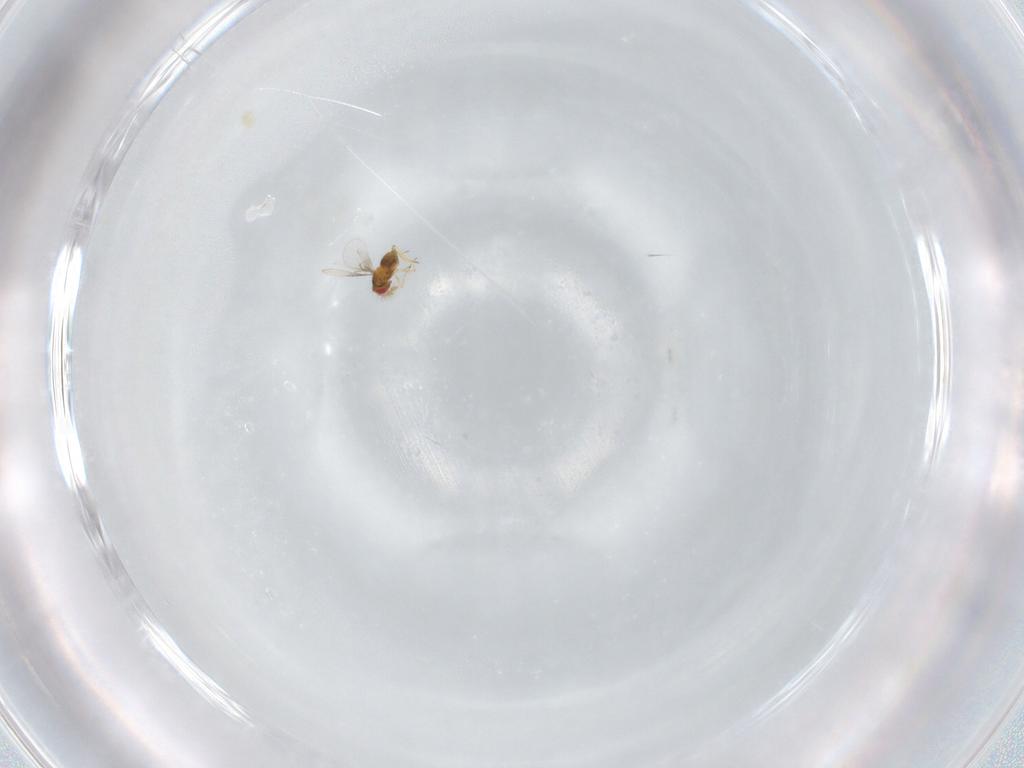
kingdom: Animalia
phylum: Arthropoda
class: Insecta
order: Hymenoptera
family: Trichogrammatidae
